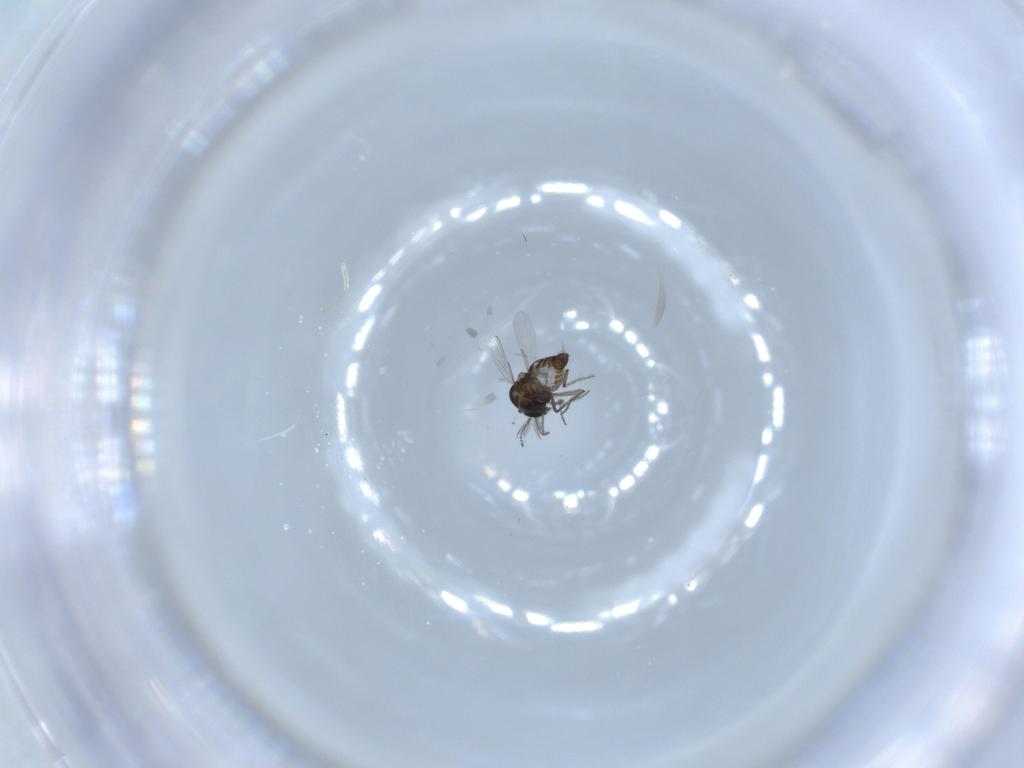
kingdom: Animalia
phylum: Arthropoda
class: Insecta
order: Diptera
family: Ceratopogonidae
